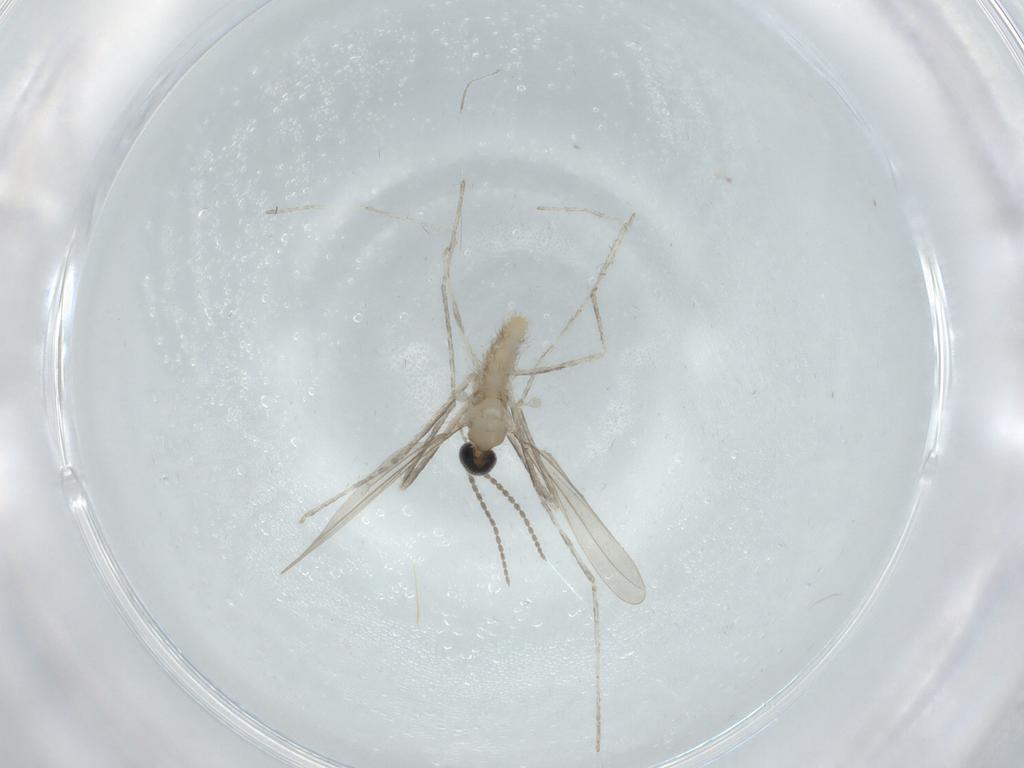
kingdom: Animalia
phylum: Arthropoda
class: Insecta
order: Diptera
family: Cecidomyiidae
